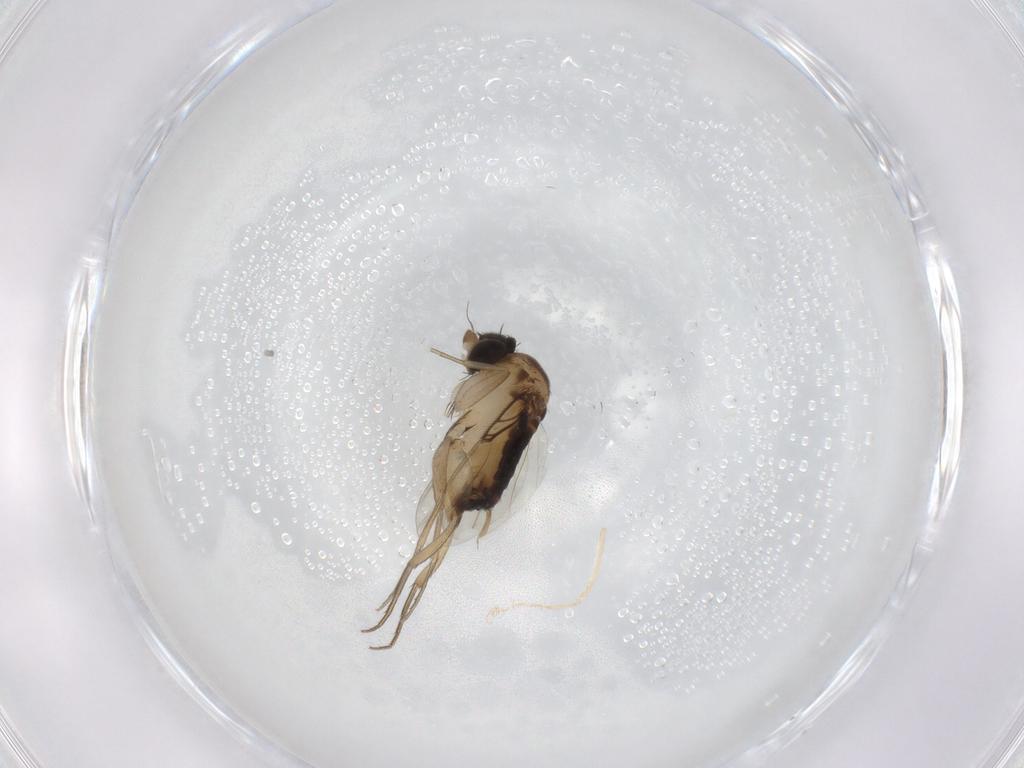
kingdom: Animalia
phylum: Arthropoda
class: Insecta
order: Diptera
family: Phoridae
